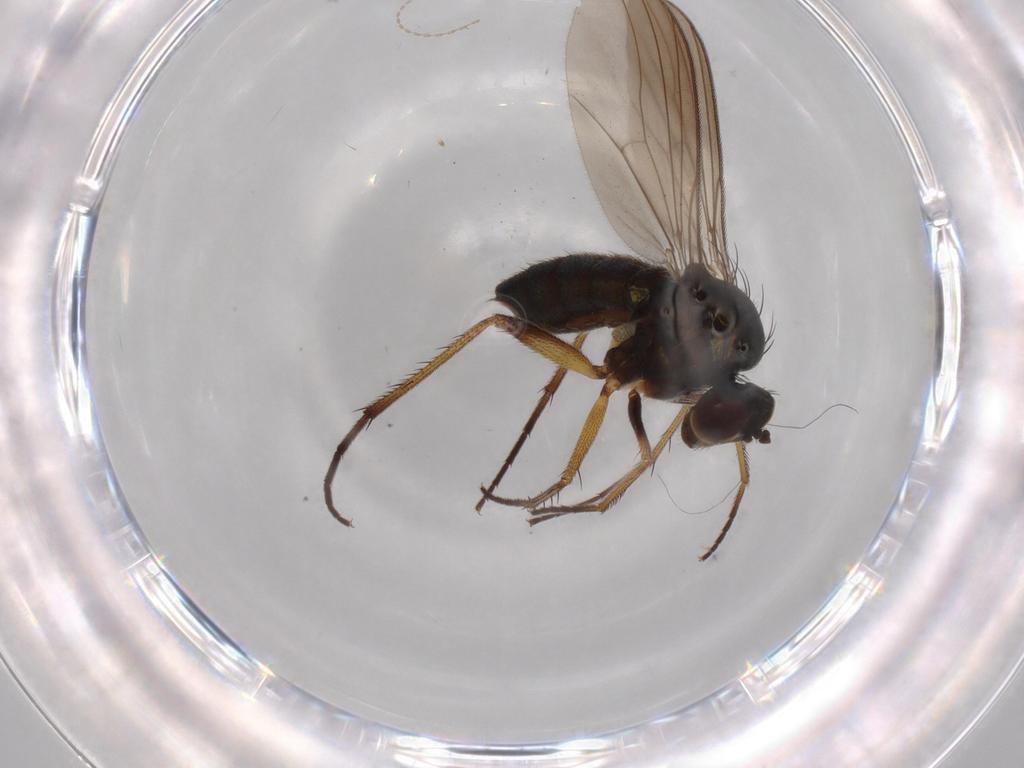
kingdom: Animalia
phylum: Arthropoda
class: Insecta
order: Diptera
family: Dolichopodidae
